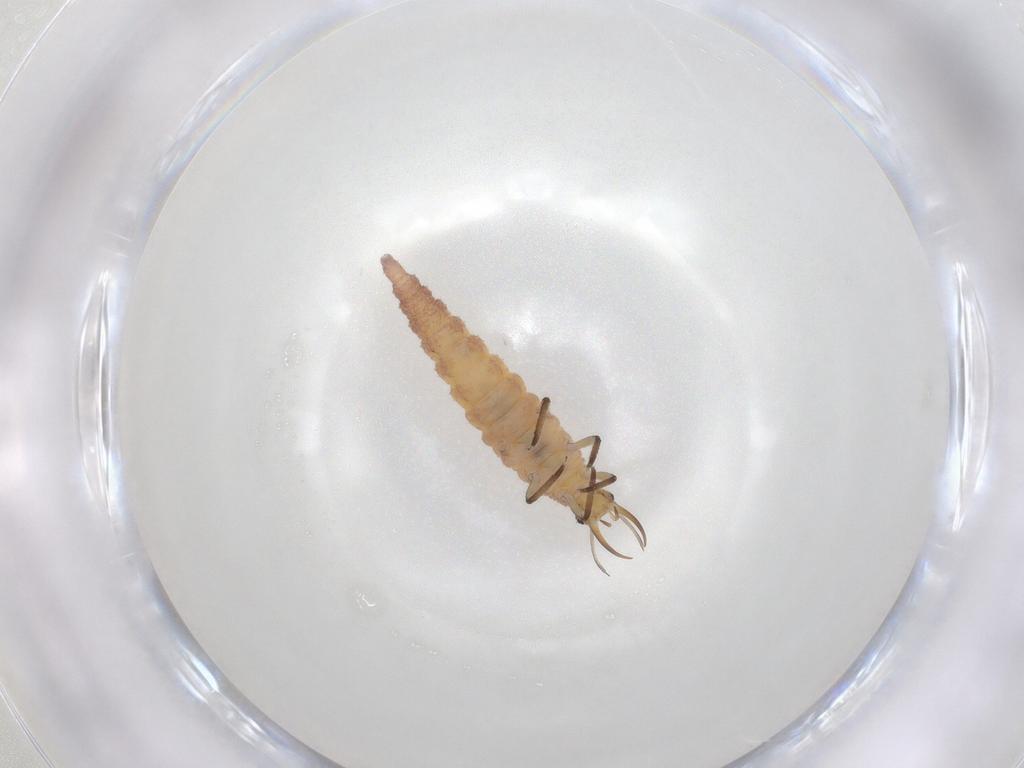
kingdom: Animalia
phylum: Arthropoda
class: Insecta
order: Neuroptera
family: Chrysopidae
